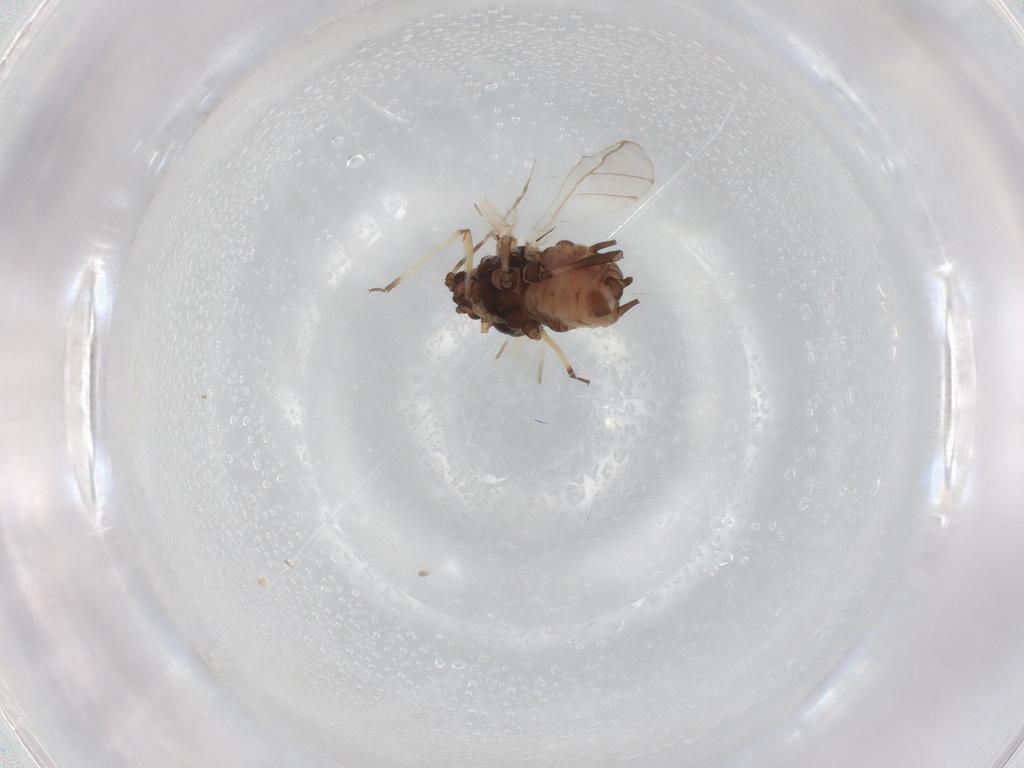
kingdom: Animalia
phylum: Arthropoda
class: Insecta
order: Hemiptera
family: Aphididae
